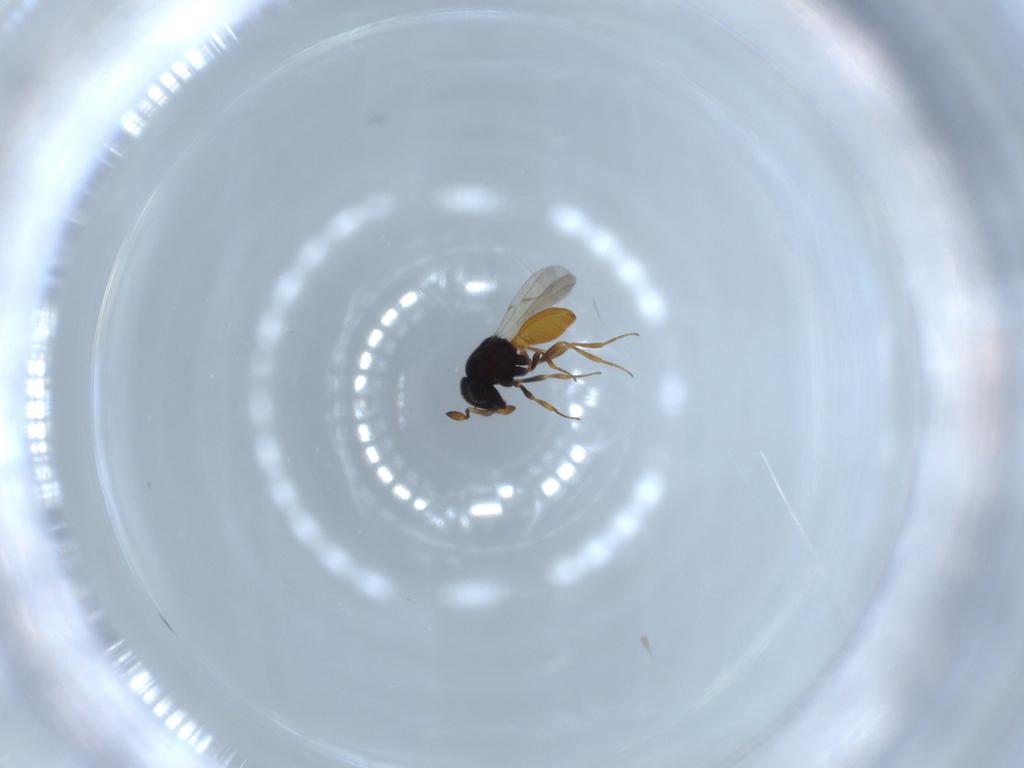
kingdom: Animalia
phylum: Arthropoda
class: Insecta
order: Hymenoptera
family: Scelionidae
